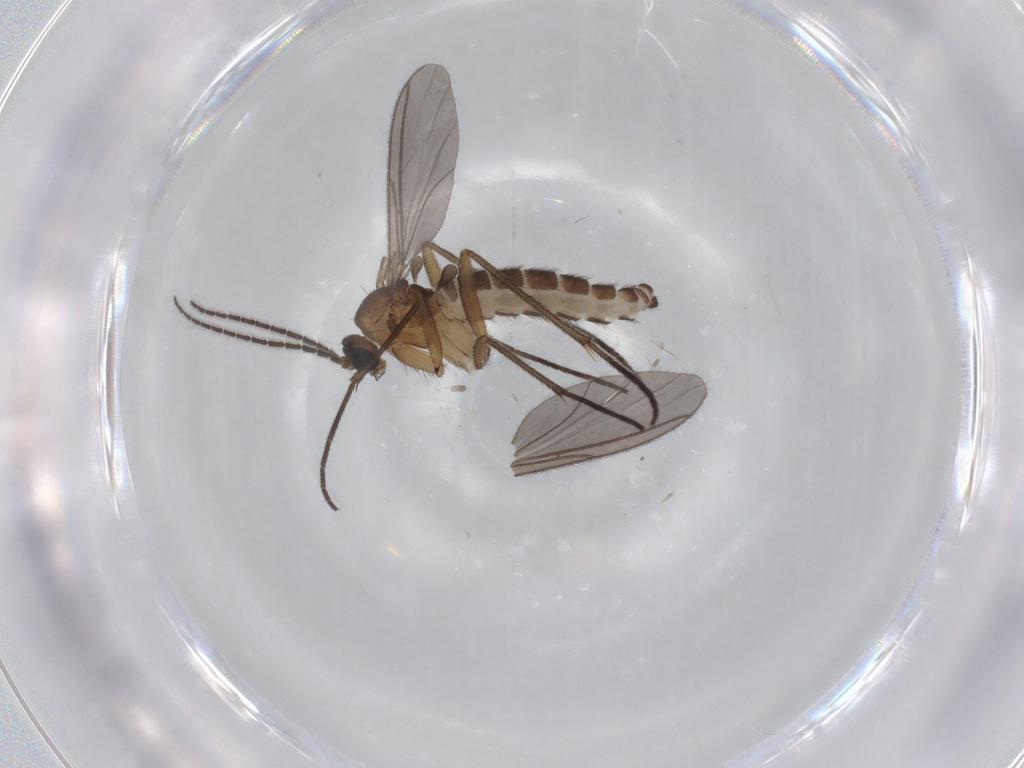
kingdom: Animalia
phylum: Arthropoda
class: Insecta
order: Diptera
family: Sciaridae
